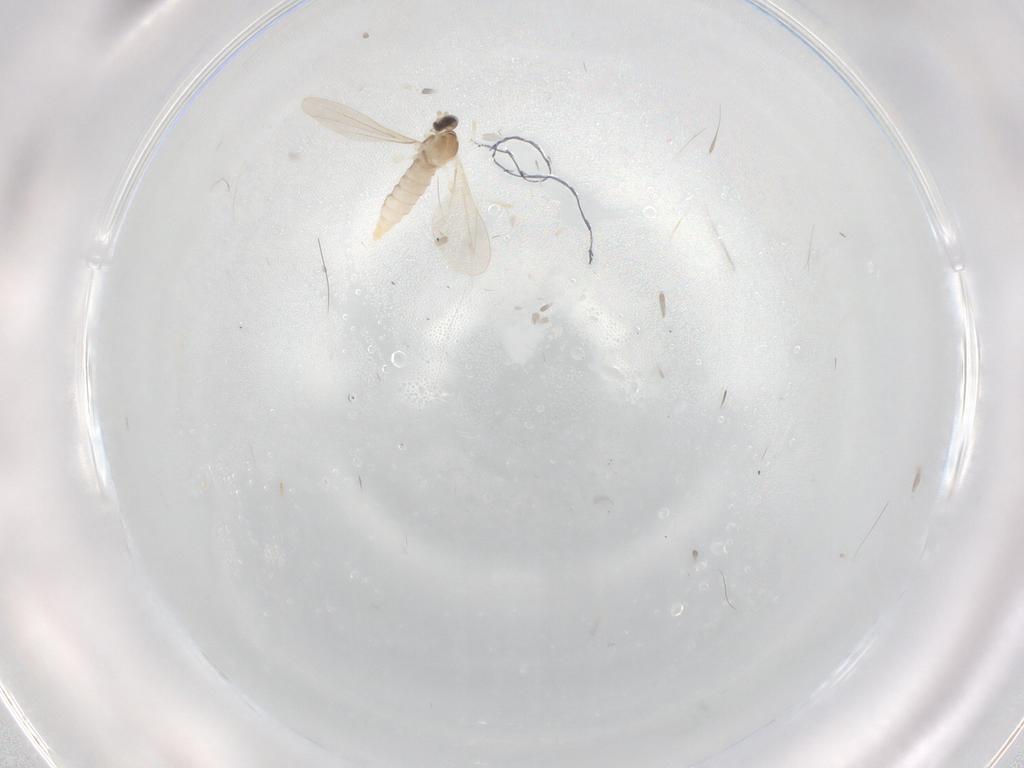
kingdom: Animalia
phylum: Arthropoda
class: Insecta
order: Diptera
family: Cecidomyiidae
